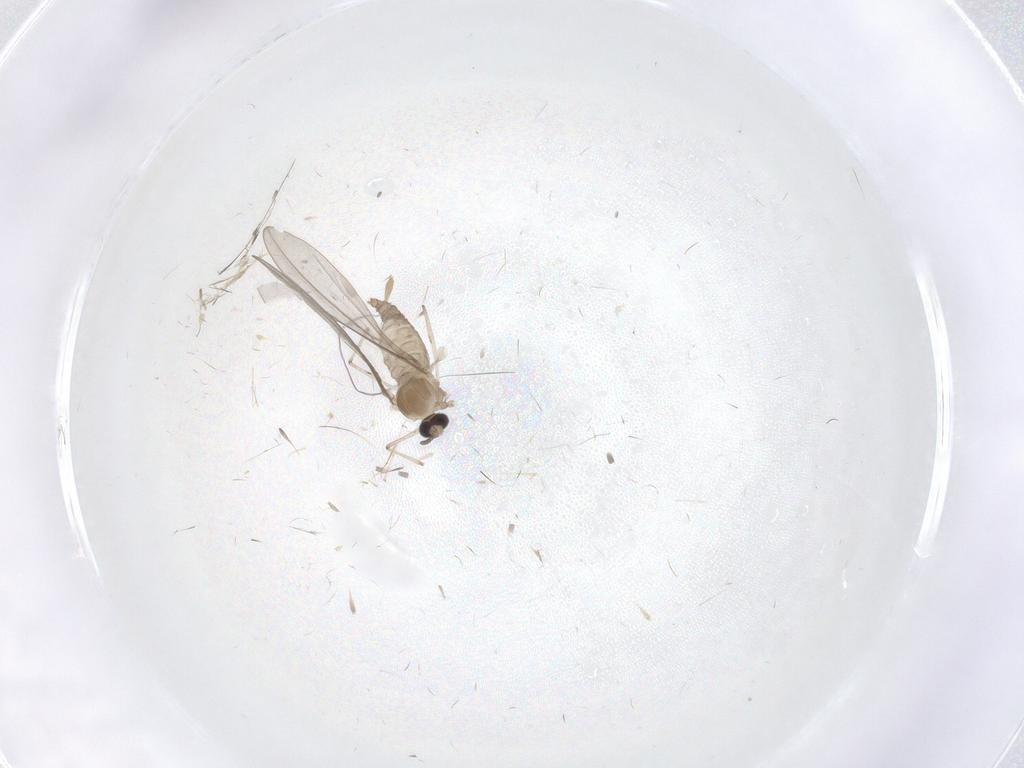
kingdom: Animalia
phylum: Arthropoda
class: Insecta
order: Diptera
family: Cecidomyiidae
